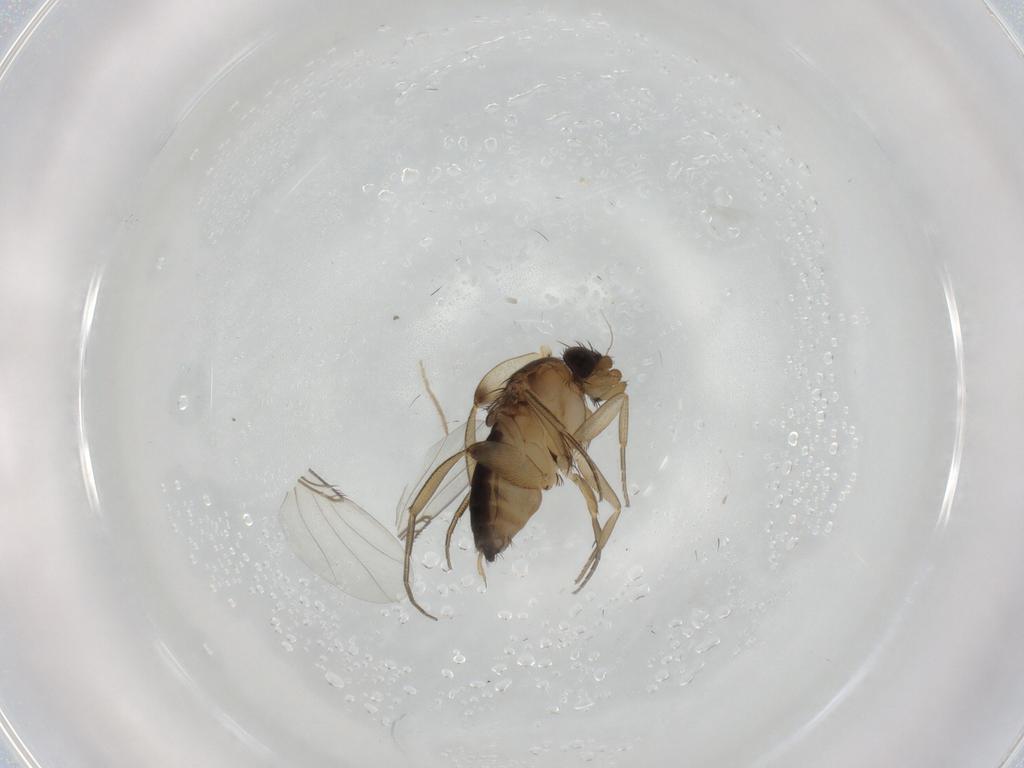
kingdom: Animalia
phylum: Arthropoda
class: Insecta
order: Diptera
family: Phoridae
